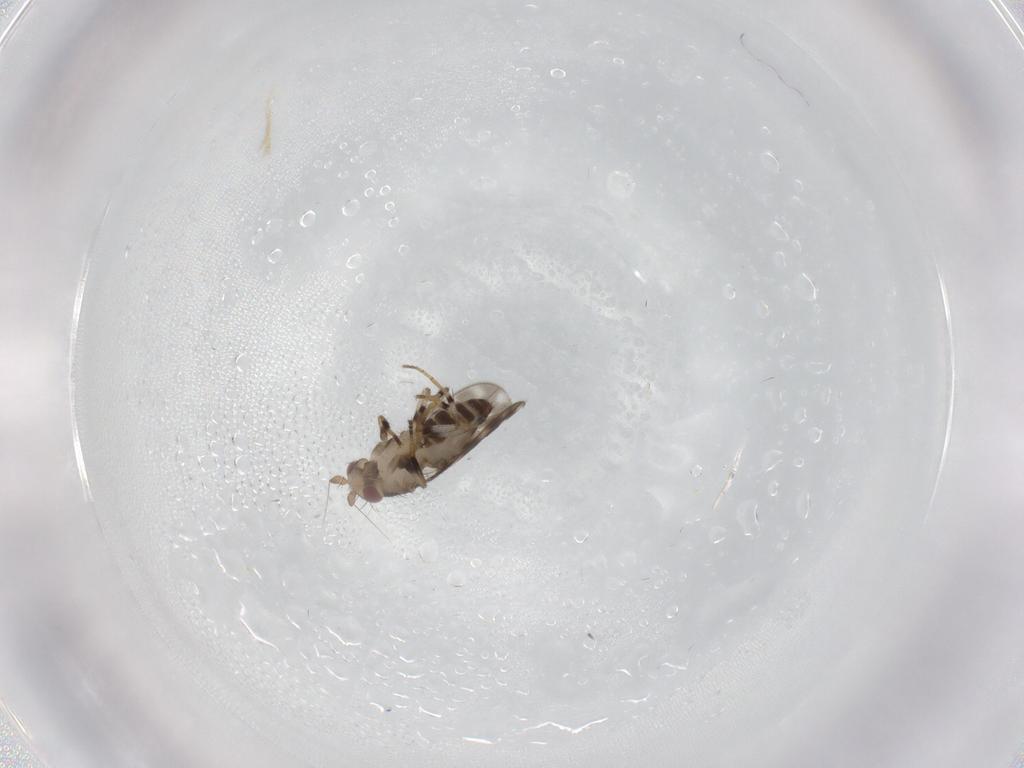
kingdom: Animalia
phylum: Arthropoda
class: Insecta
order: Diptera
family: Sphaeroceridae
